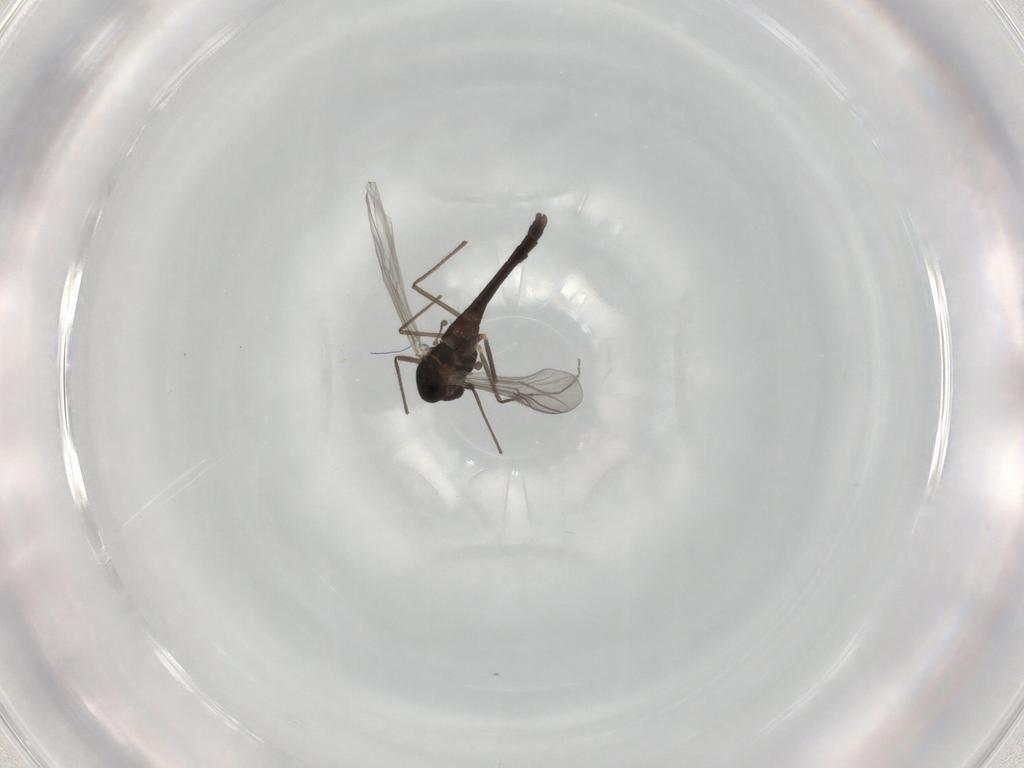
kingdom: Animalia
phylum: Arthropoda
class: Insecta
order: Diptera
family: Chironomidae
